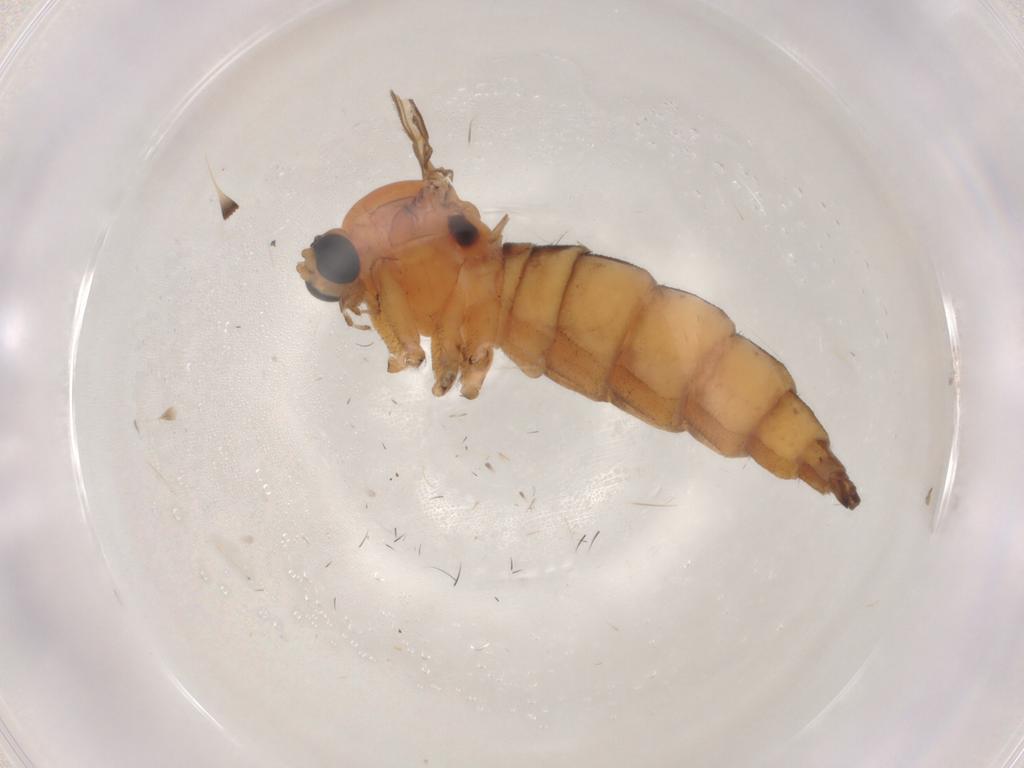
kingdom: Animalia
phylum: Arthropoda
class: Insecta
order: Diptera
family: Sciaridae
